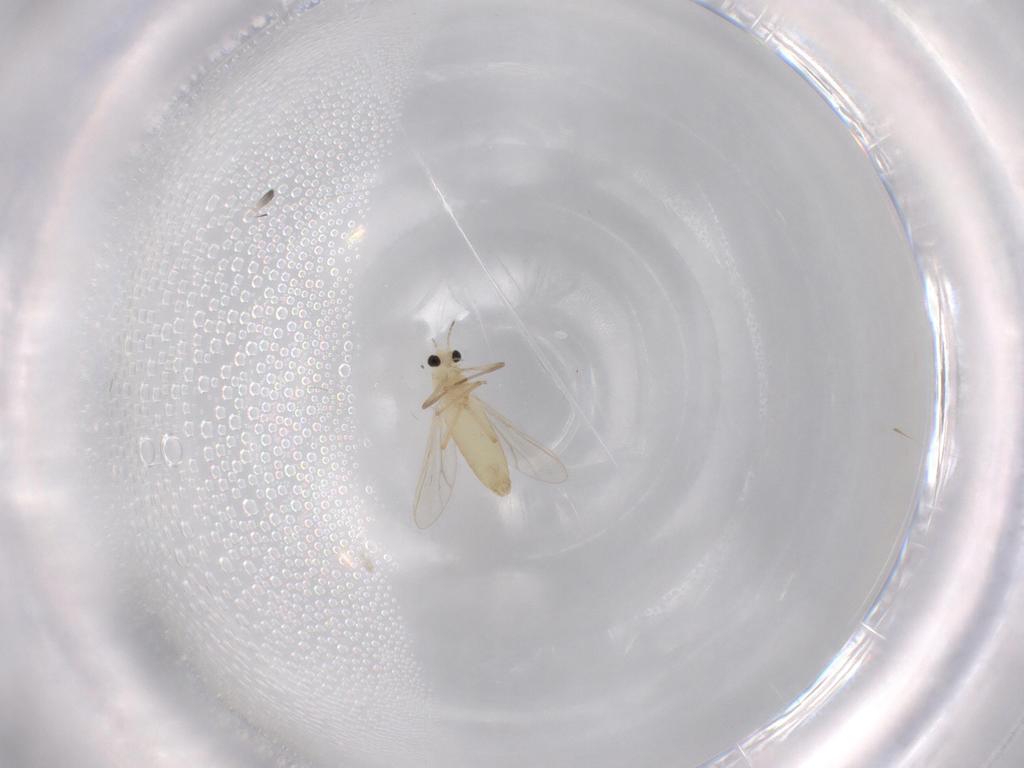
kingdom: Animalia
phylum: Arthropoda
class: Insecta
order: Diptera
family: Chironomidae
